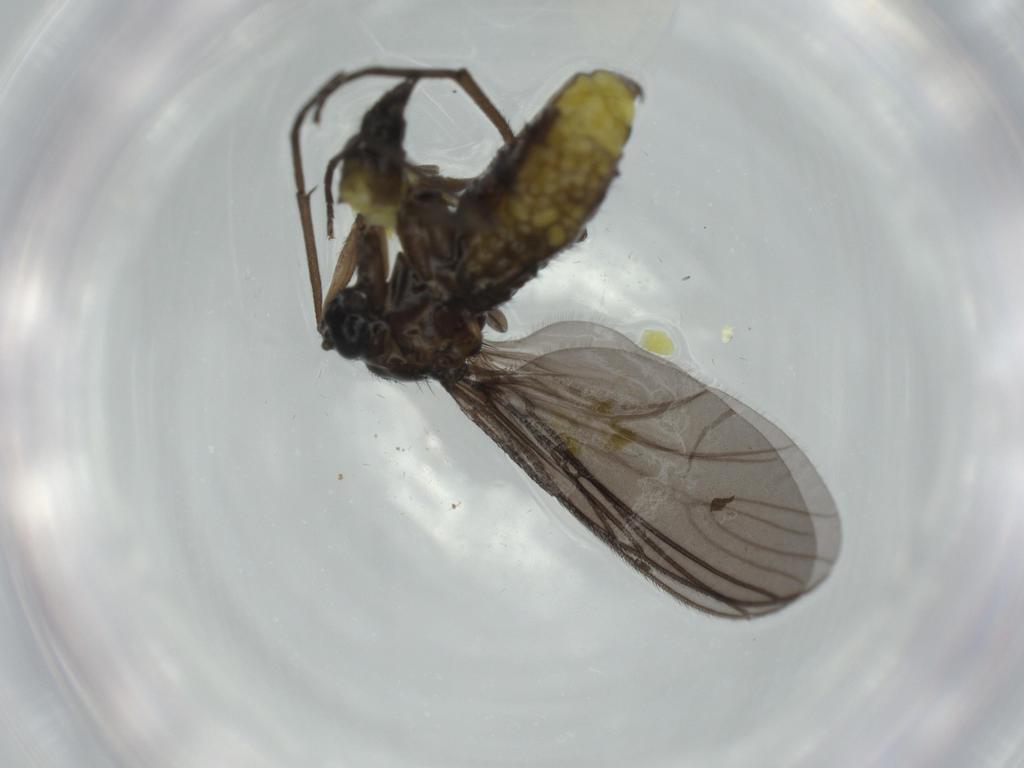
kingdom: Animalia
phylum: Arthropoda
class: Insecta
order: Diptera
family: Sciaridae
